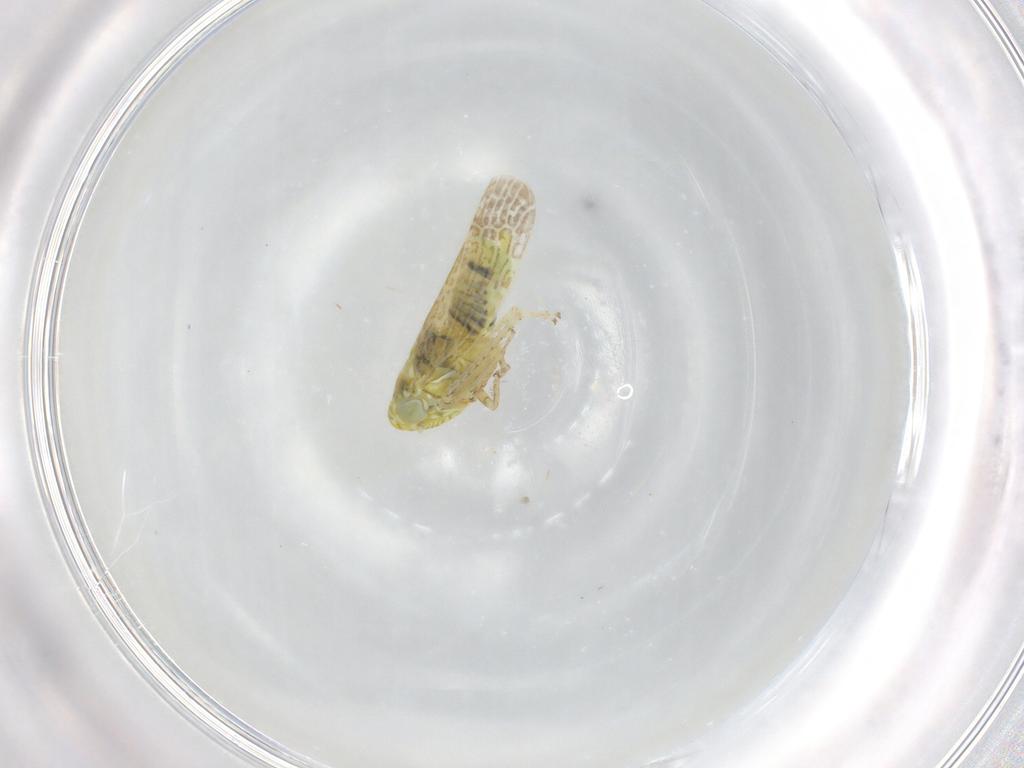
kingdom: Animalia
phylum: Arthropoda
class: Insecta
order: Hemiptera
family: Cicadellidae
